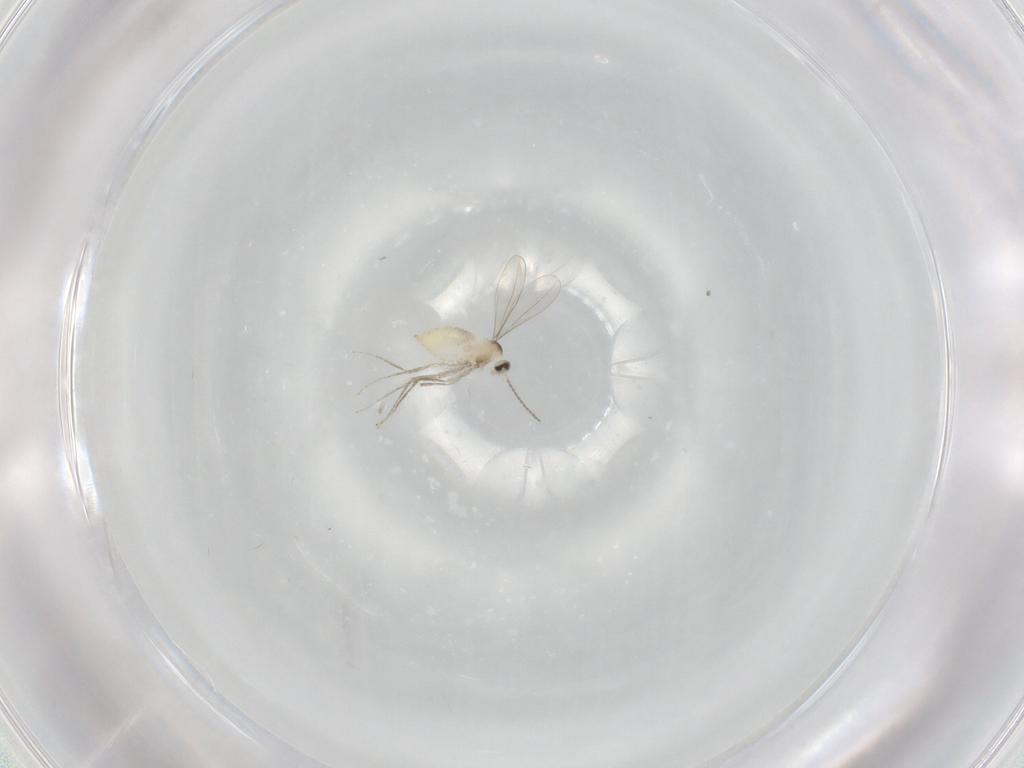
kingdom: Animalia
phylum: Arthropoda
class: Insecta
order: Diptera
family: Cecidomyiidae
